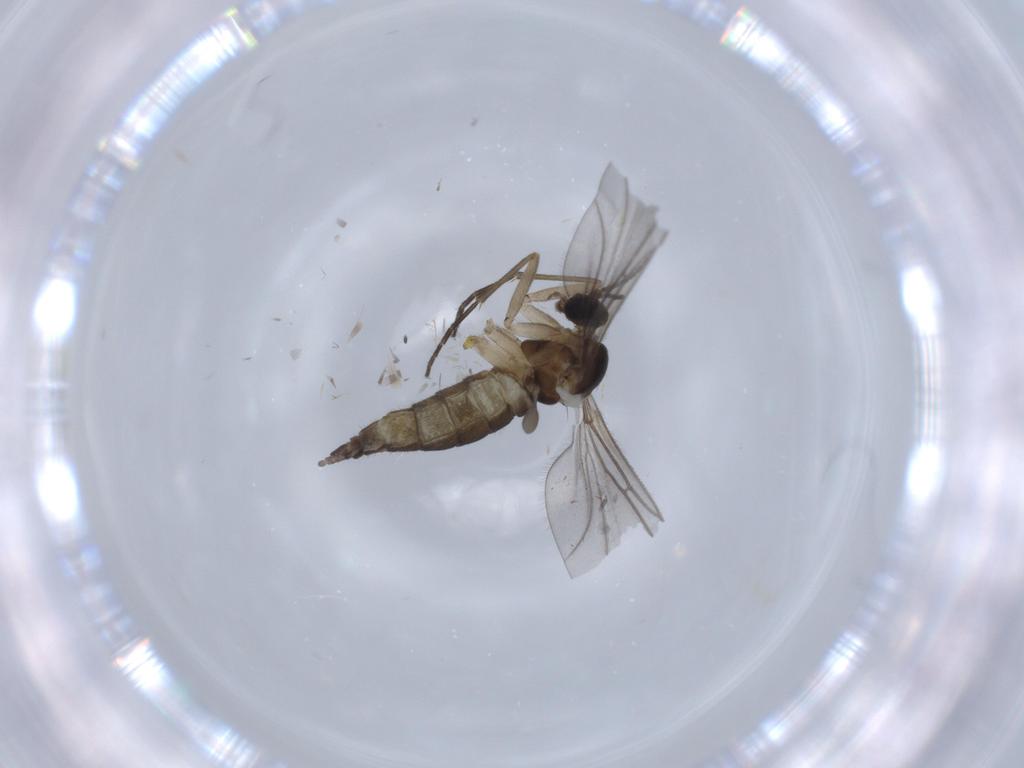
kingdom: Animalia
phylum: Arthropoda
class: Insecta
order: Diptera
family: Sciaridae
